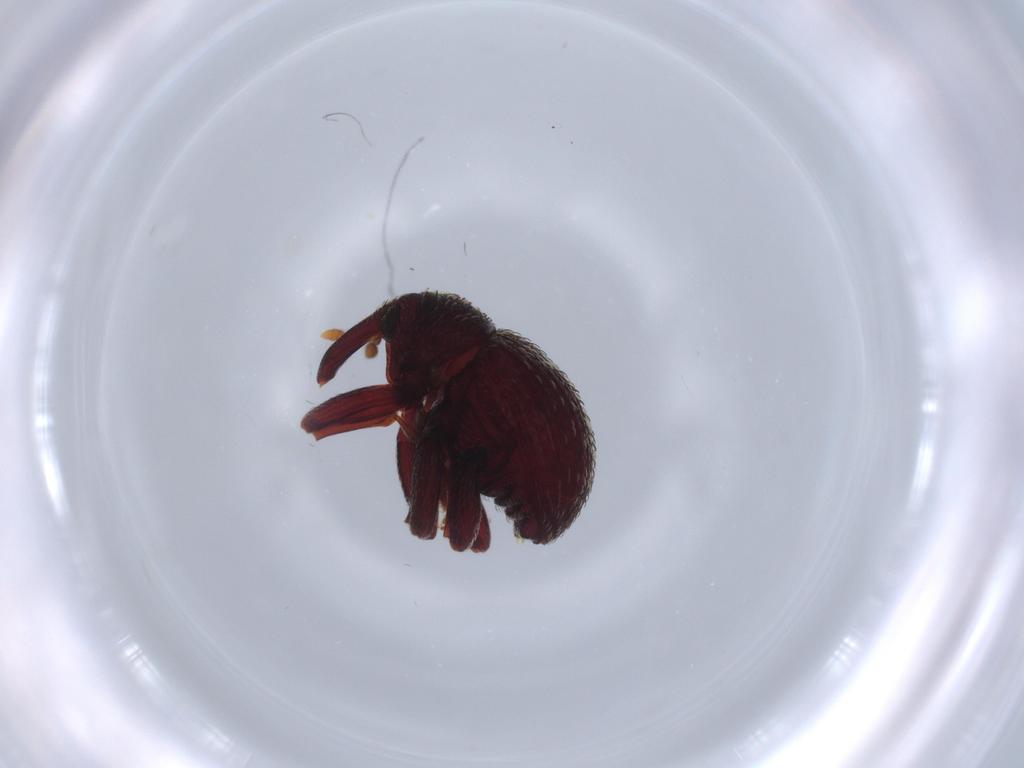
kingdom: Animalia
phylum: Arthropoda
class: Insecta
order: Coleoptera
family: Curculionidae
